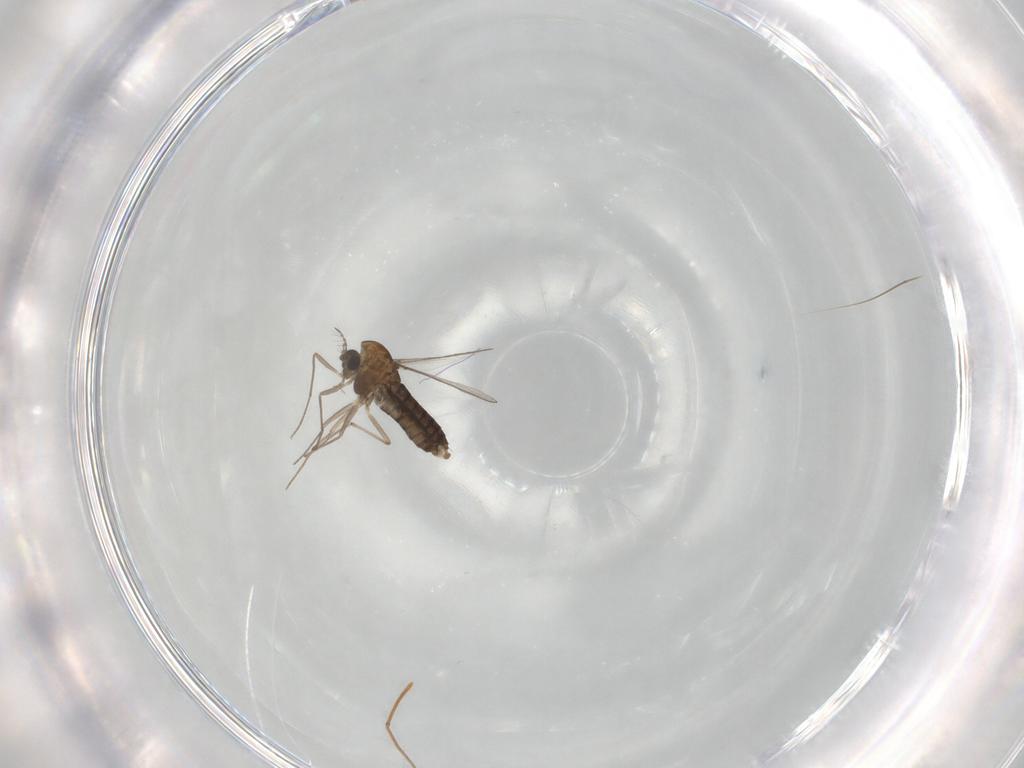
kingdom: Animalia
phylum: Arthropoda
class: Insecta
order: Diptera
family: Chironomidae
